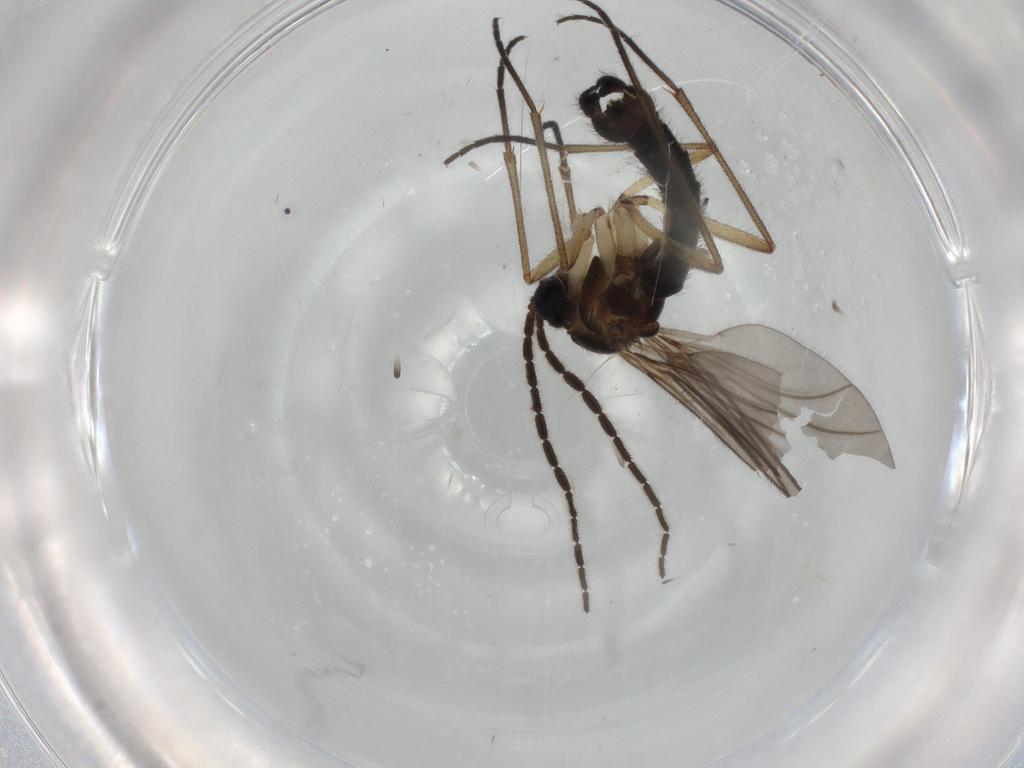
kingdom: Animalia
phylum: Arthropoda
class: Insecta
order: Diptera
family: Sciaridae
